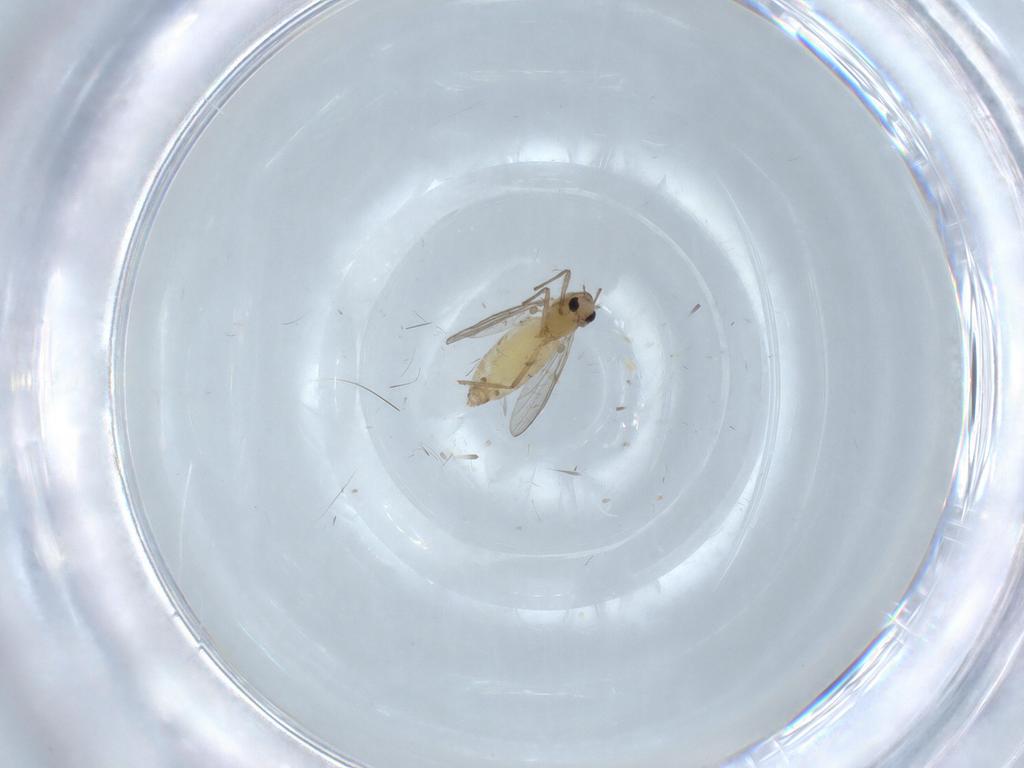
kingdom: Animalia
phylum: Arthropoda
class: Insecta
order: Diptera
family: Chironomidae
